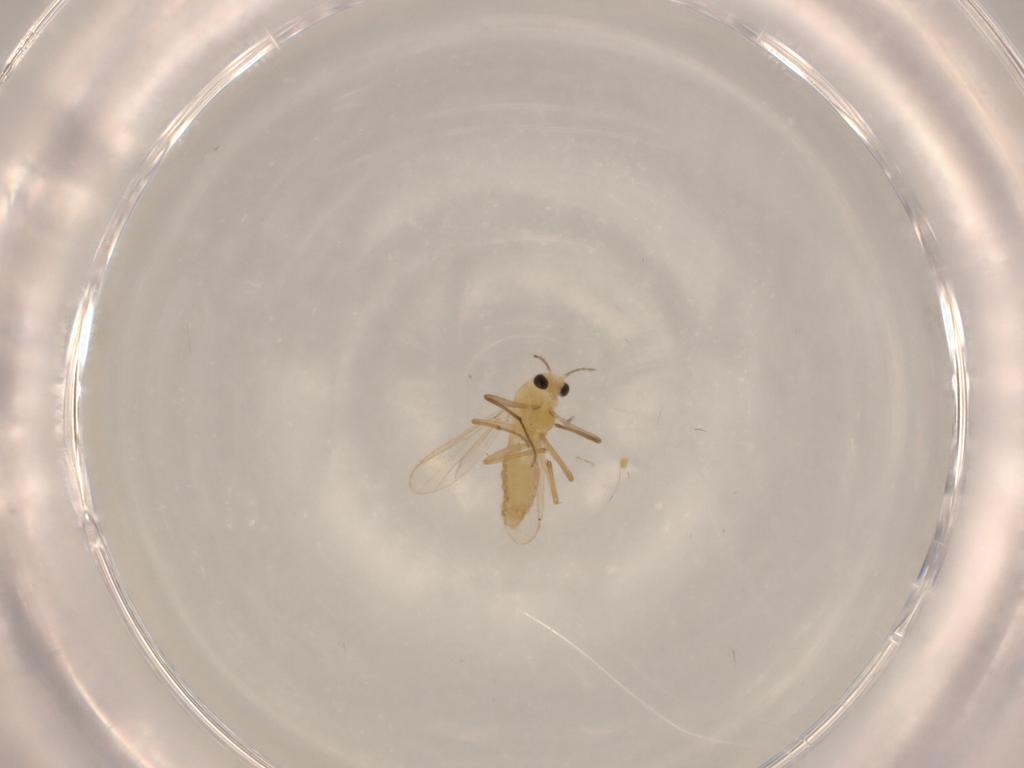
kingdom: Animalia
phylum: Arthropoda
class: Insecta
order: Diptera
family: Chironomidae
